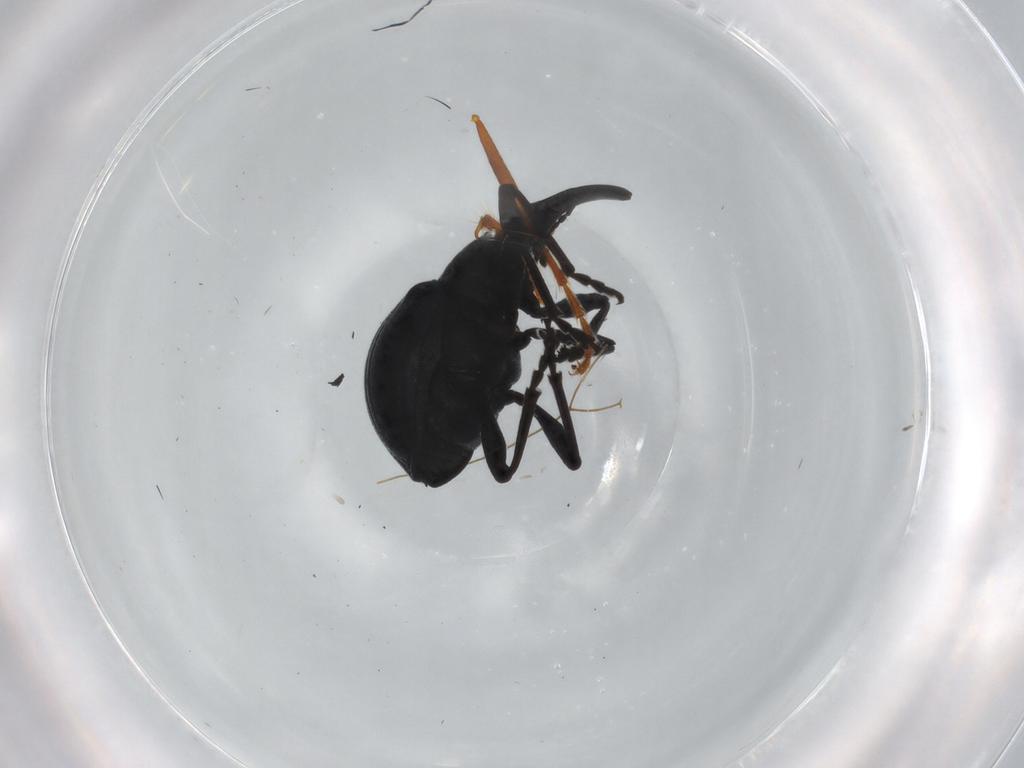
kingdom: Animalia
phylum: Arthropoda
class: Insecta
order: Coleoptera
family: Apionidae
